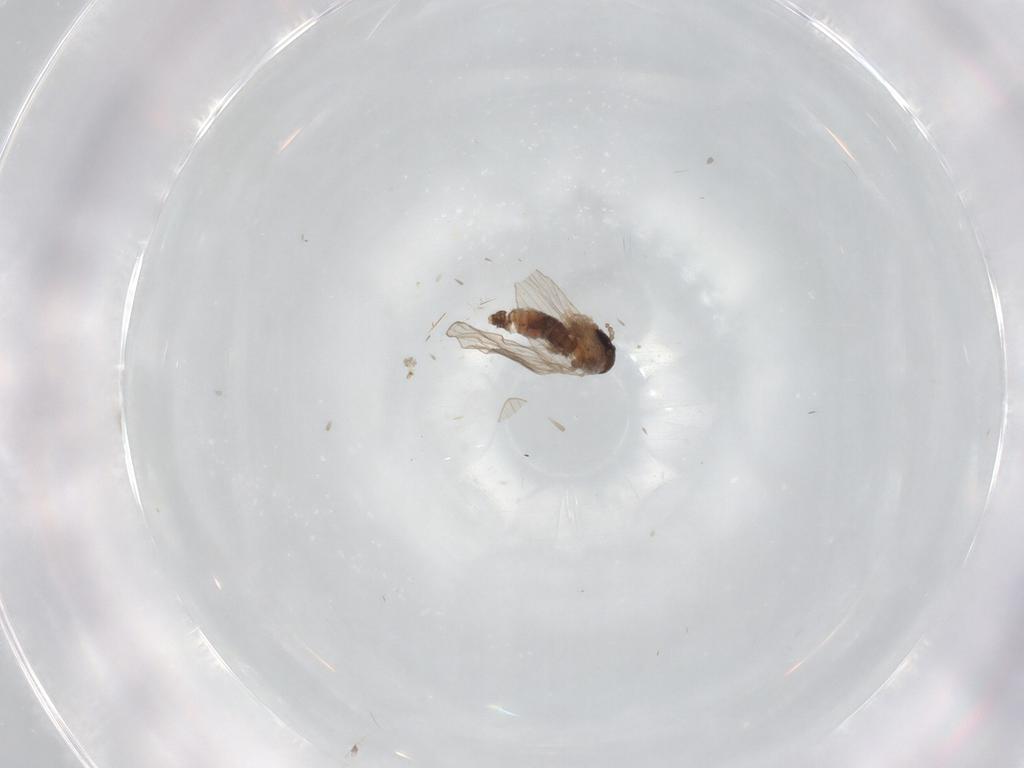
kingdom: Animalia
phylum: Arthropoda
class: Insecta
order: Diptera
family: Psychodidae
